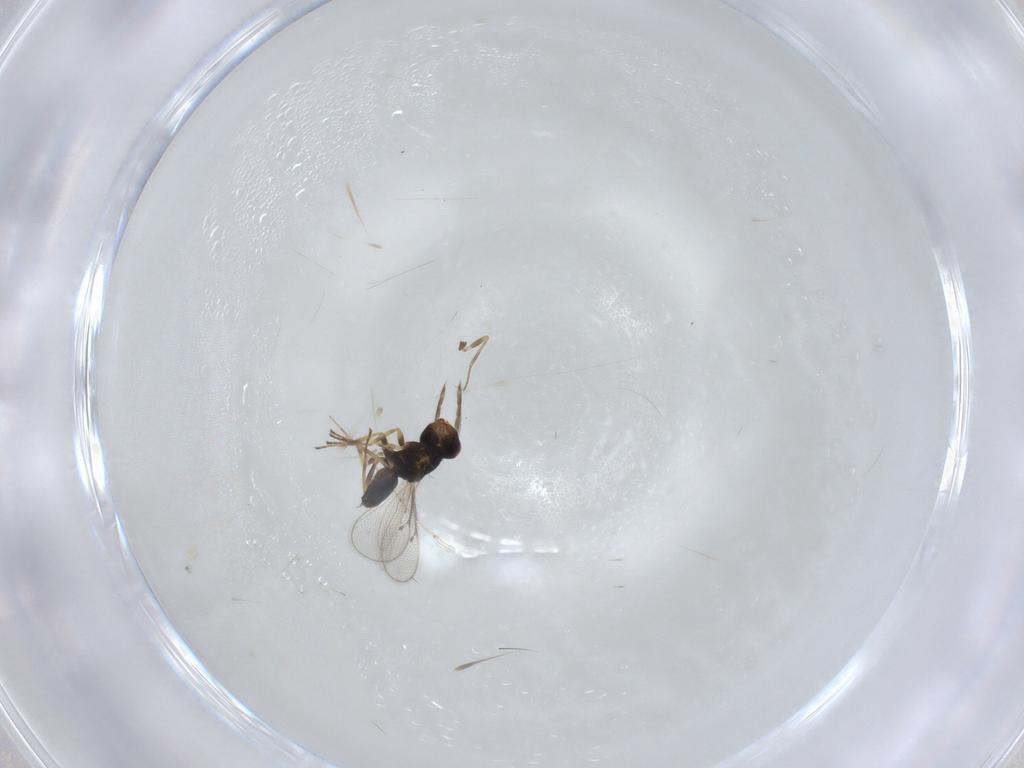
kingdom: Animalia
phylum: Arthropoda
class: Insecta
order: Hymenoptera
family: Eulophidae
